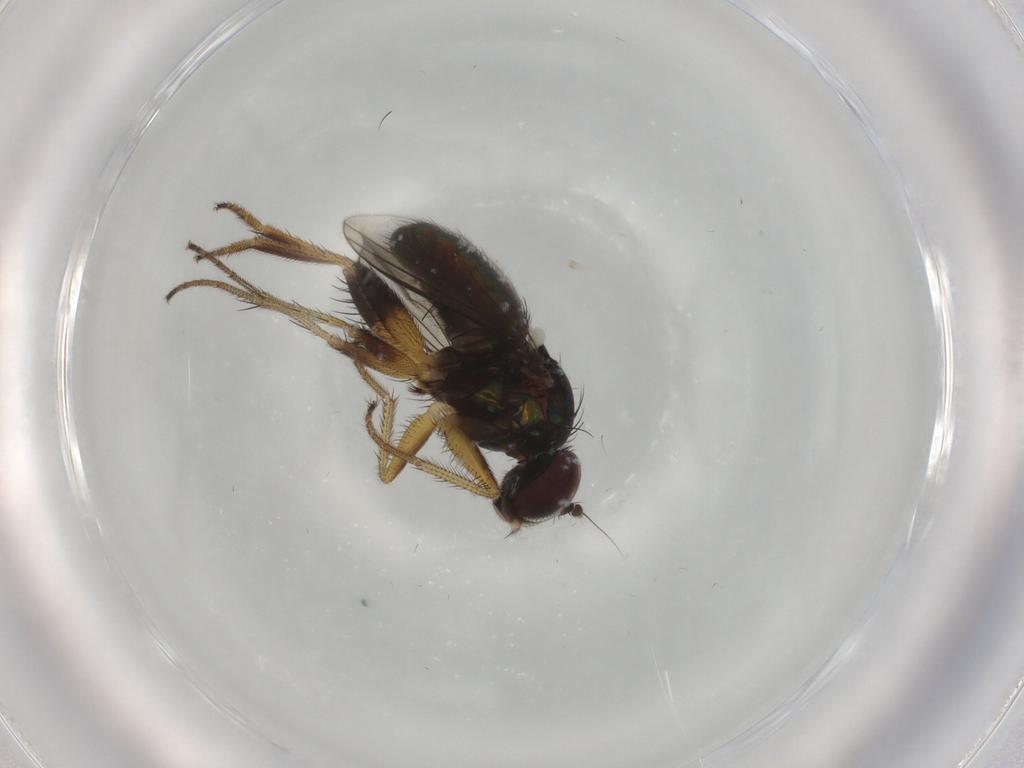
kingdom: Animalia
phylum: Arthropoda
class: Insecta
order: Diptera
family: Dolichopodidae
